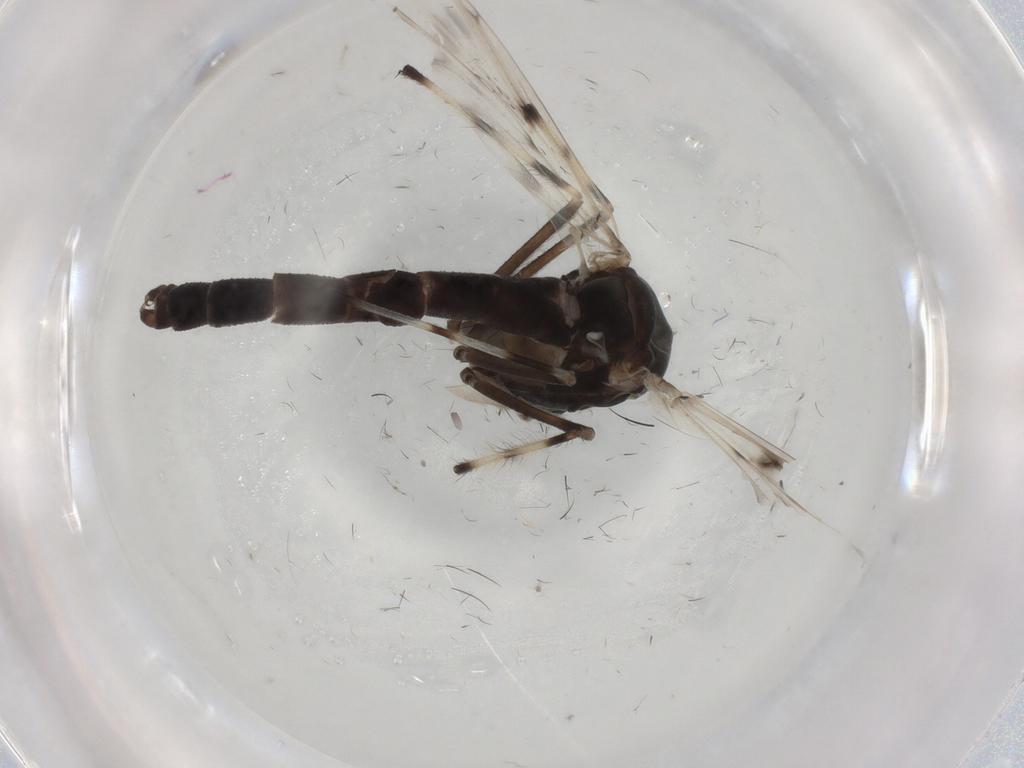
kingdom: Animalia
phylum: Arthropoda
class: Insecta
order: Diptera
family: Chironomidae
